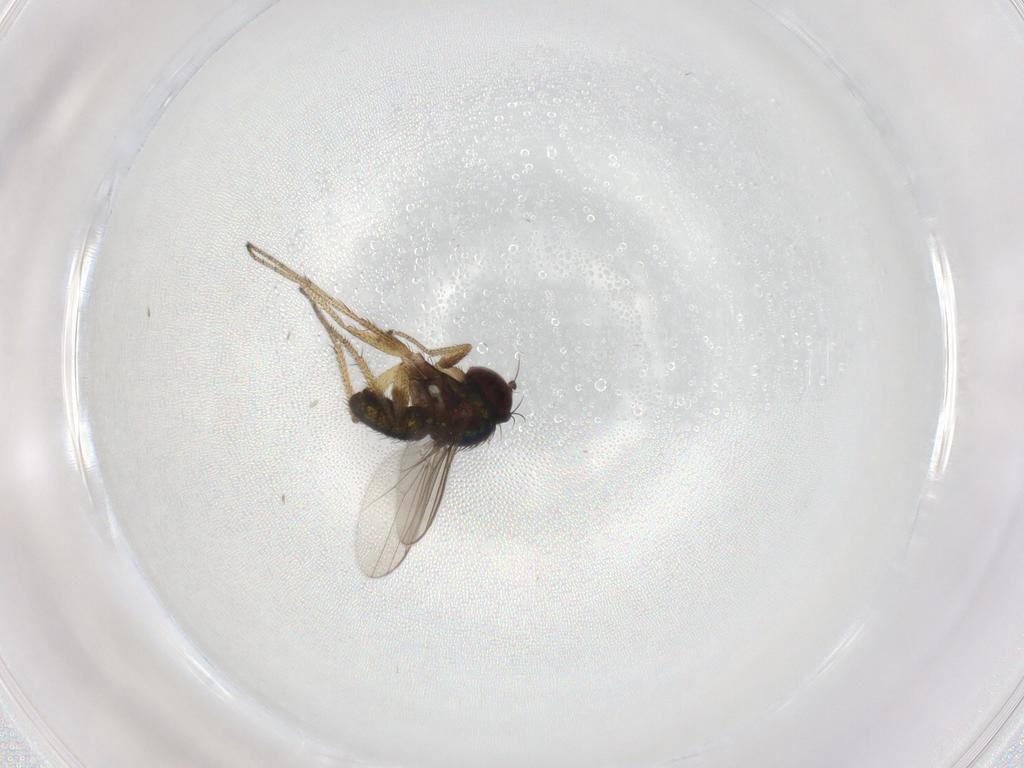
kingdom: Animalia
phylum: Arthropoda
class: Insecta
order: Diptera
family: Dolichopodidae
